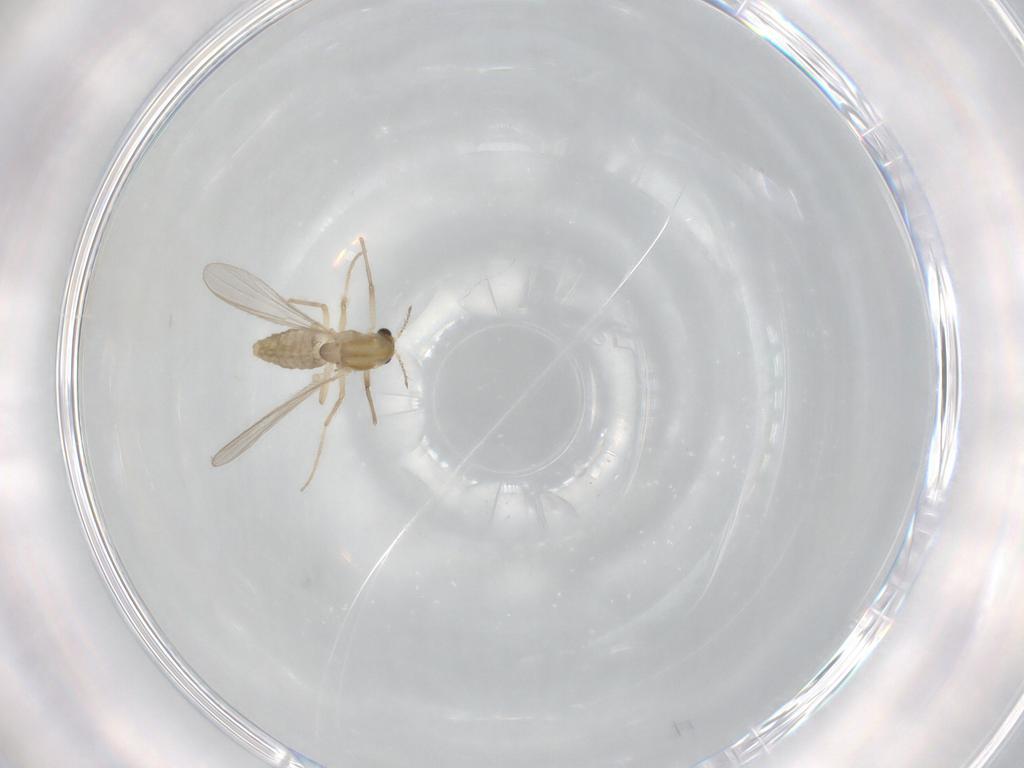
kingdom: Animalia
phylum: Arthropoda
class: Insecta
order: Diptera
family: Chironomidae
